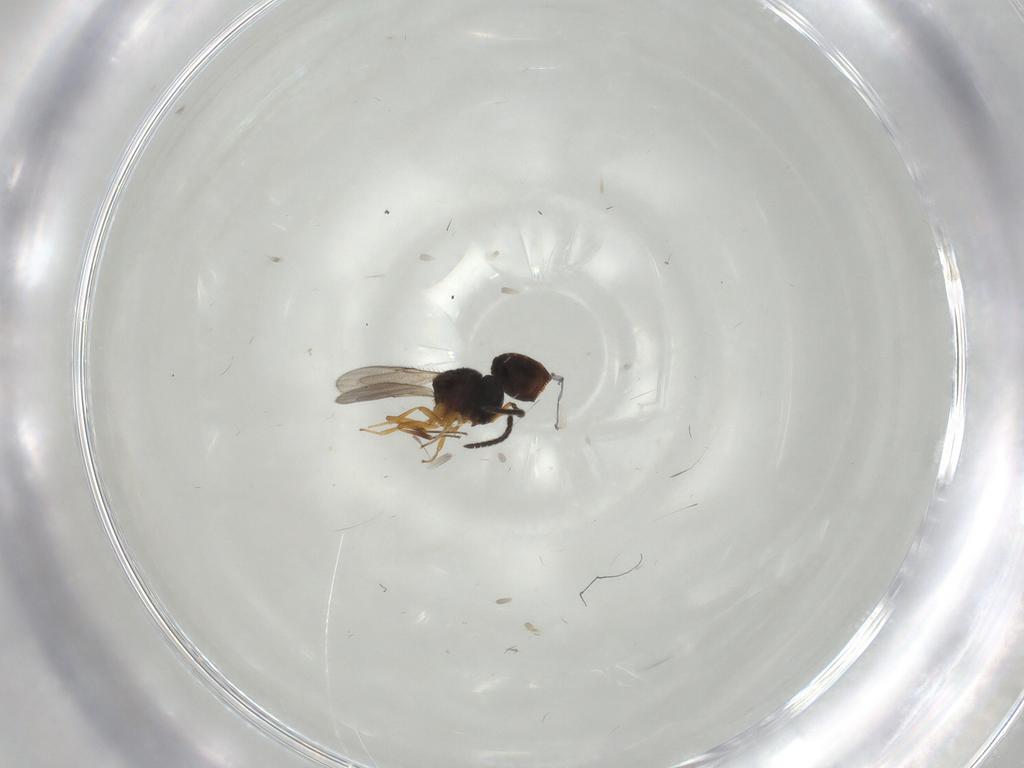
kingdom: Animalia
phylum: Arthropoda
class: Insecta
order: Hymenoptera
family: Scelionidae
